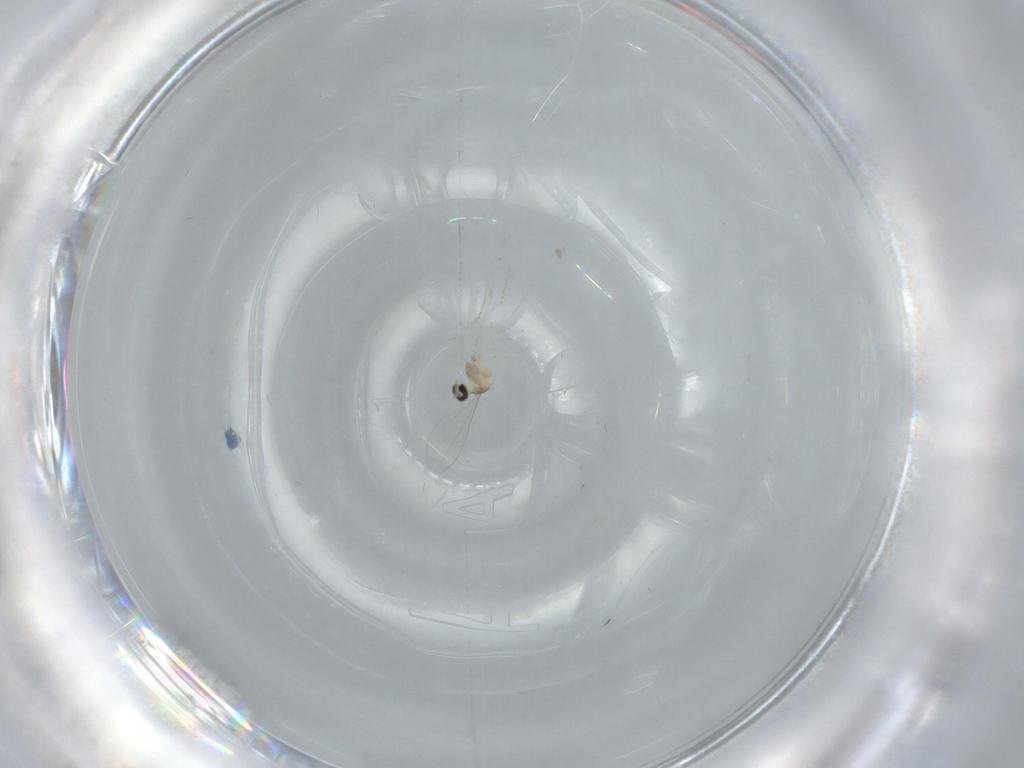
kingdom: Animalia
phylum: Arthropoda
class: Insecta
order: Diptera
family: Cecidomyiidae
